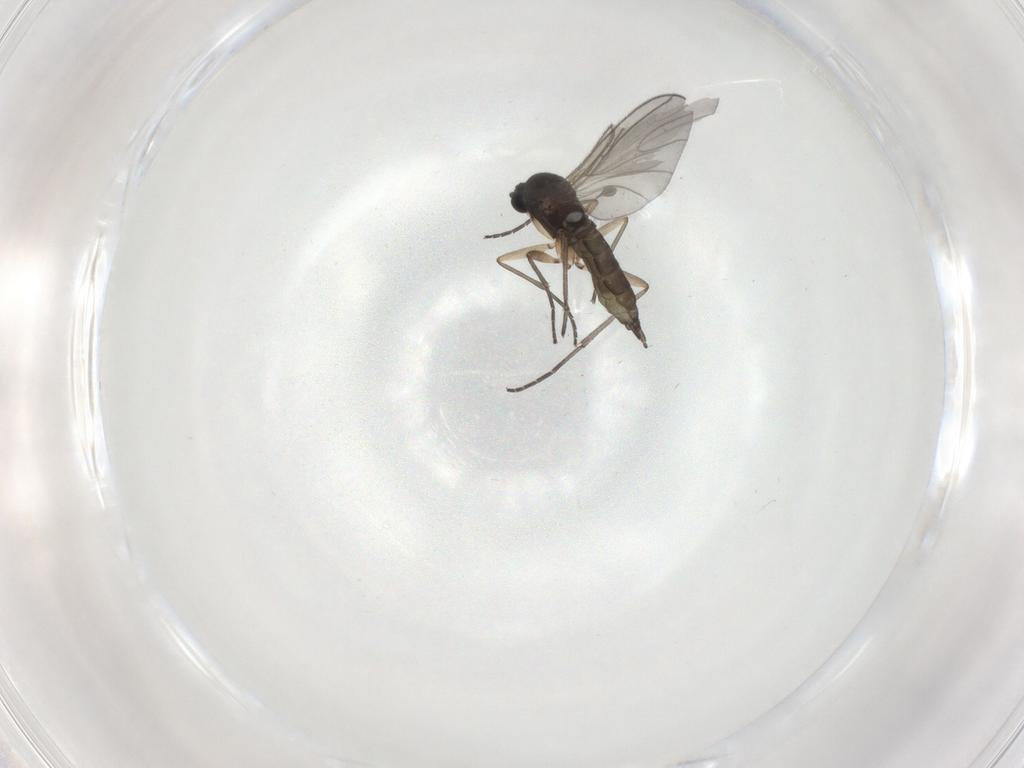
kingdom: Animalia
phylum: Arthropoda
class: Insecta
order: Diptera
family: Sciaridae
